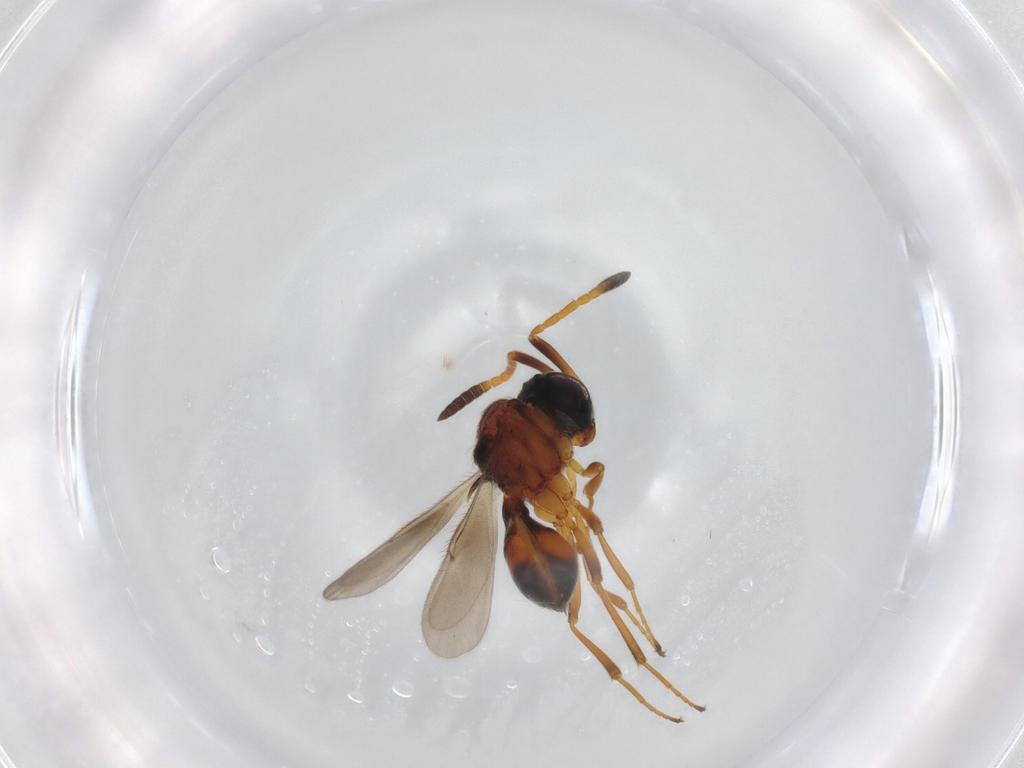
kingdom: Animalia
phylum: Arthropoda
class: Insecta
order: Hymenoptera
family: Scelionidae
